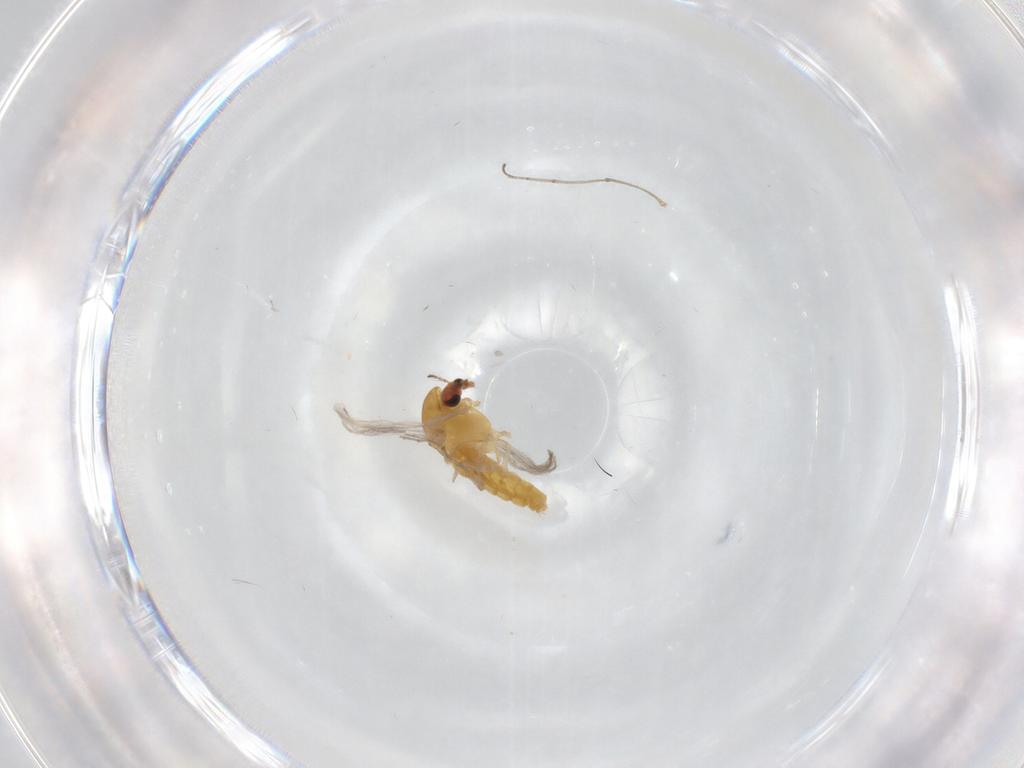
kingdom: Animalia
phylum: Arthropoda
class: Insecta
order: Diptera
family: Chironomidae
